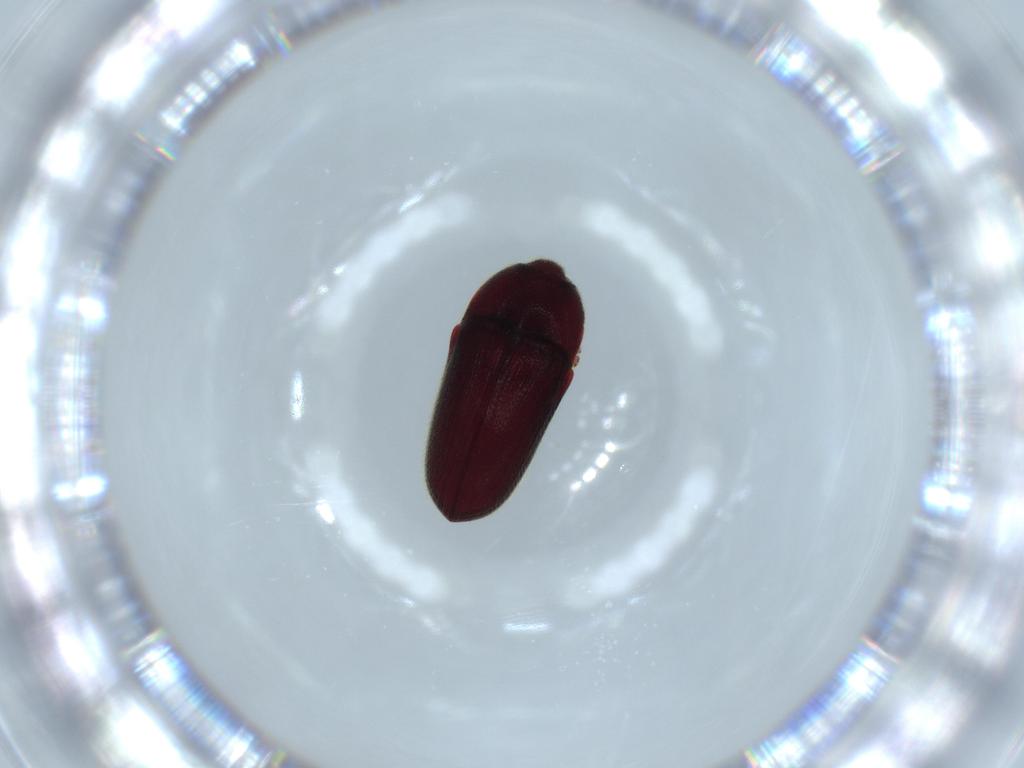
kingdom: Animalia
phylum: Arthropoda
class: Insecta
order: Coleoptera
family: Throscidae
